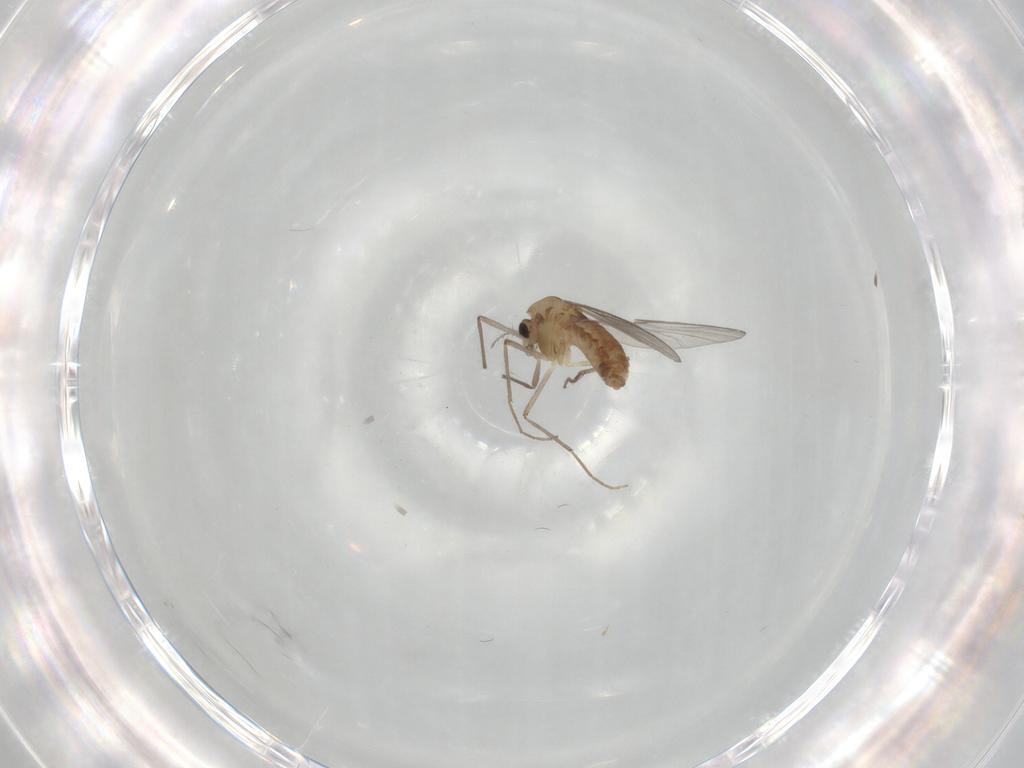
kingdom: Animalia
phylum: Arthropoda
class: Insecta
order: Diptera
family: Chironomidae
